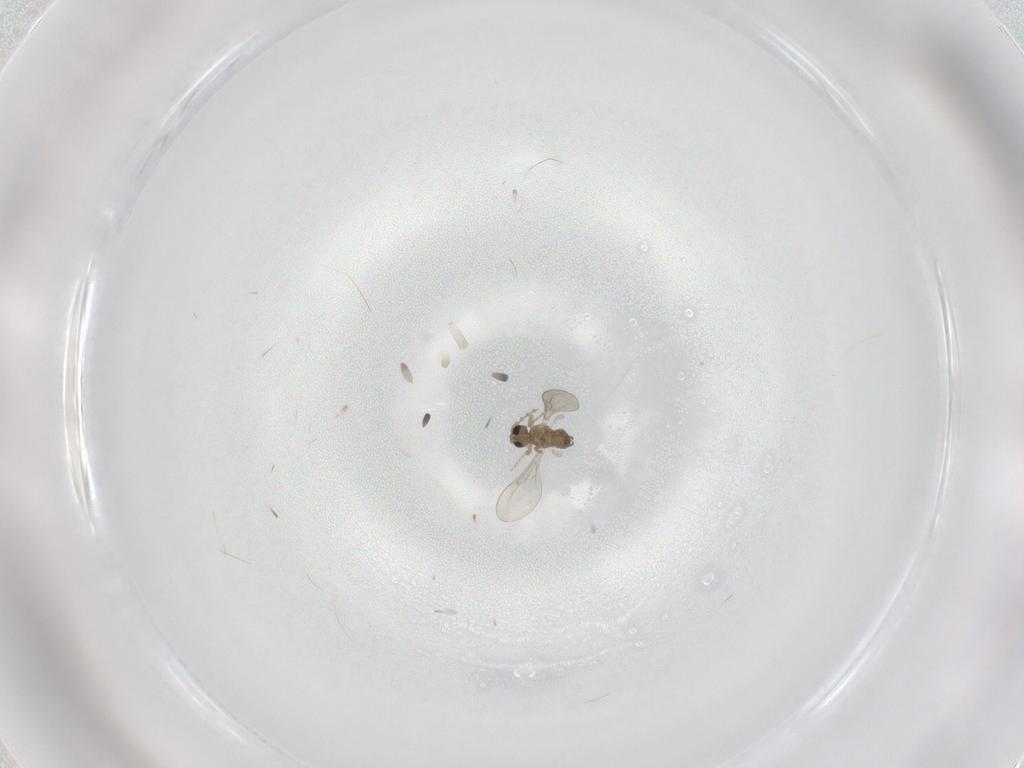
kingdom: Animalia
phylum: Arthropoda
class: Insecta
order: Diptera
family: Cecidomyiidae
